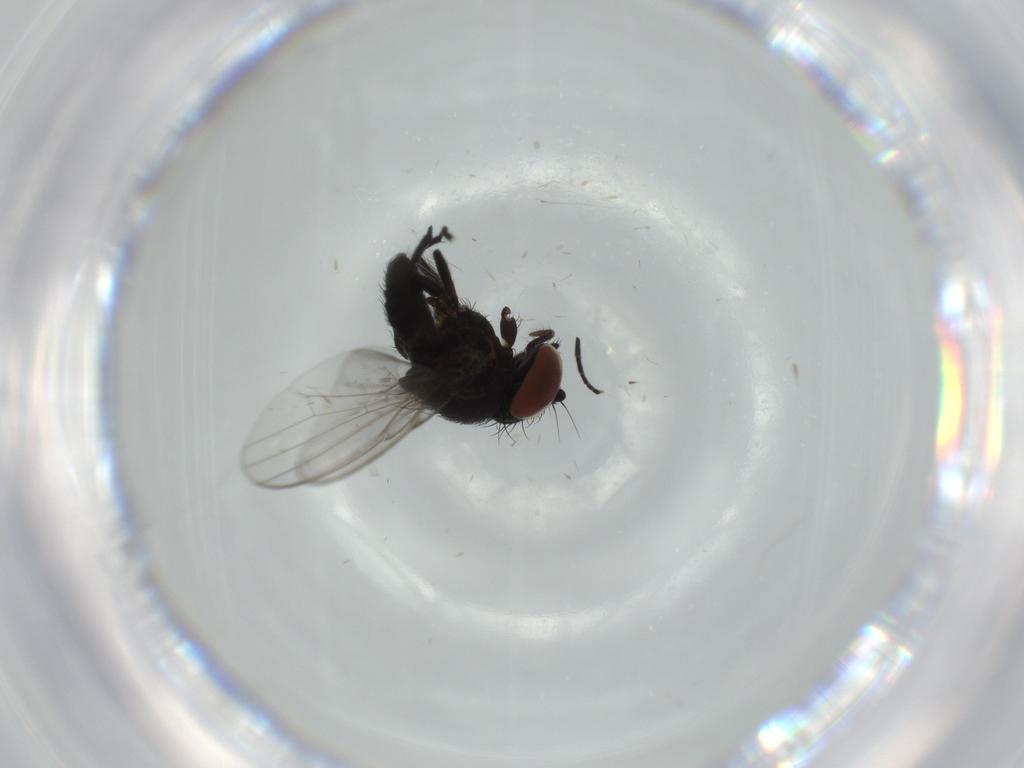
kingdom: Animalia
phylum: Arthropoda
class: Insecta
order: Diptera
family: Milichiidae
